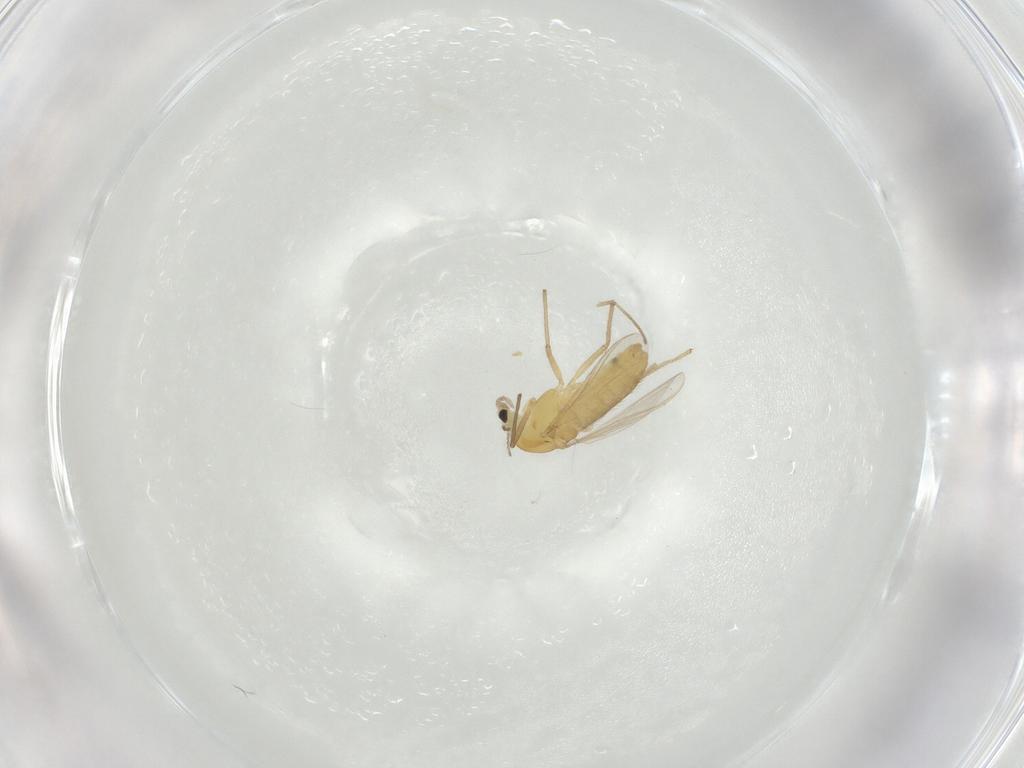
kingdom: Animalia
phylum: Arthropoda
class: Insecta
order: Diptera
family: Chironomidae
